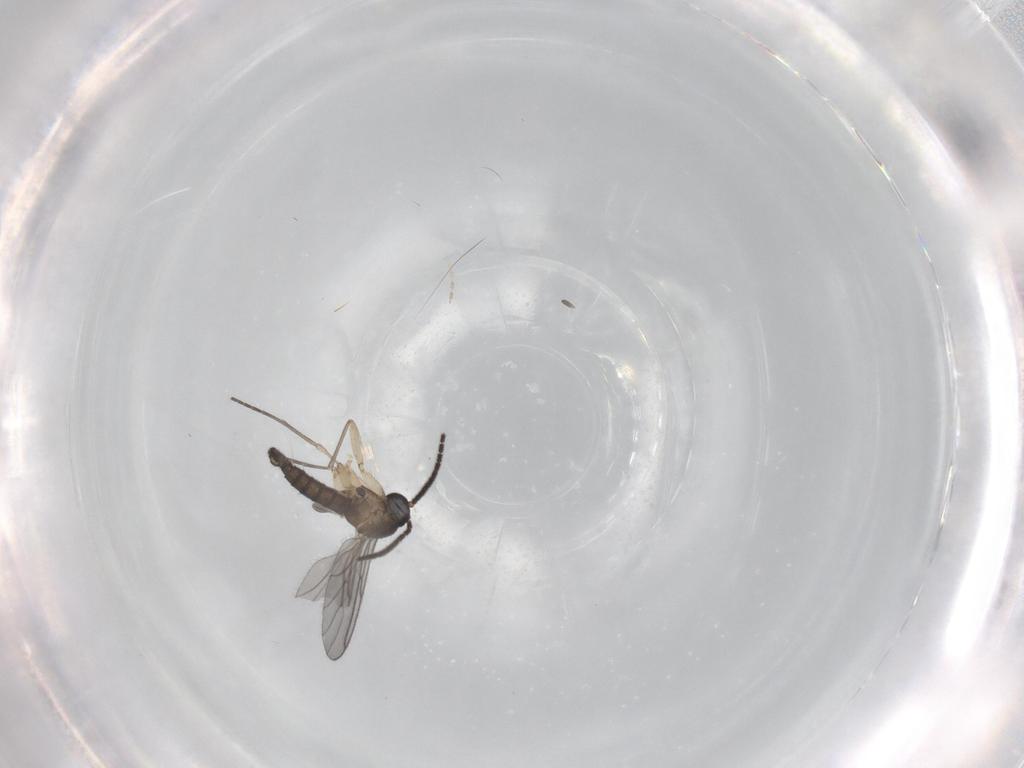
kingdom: Animalia
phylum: Arthropoda
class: Insecta
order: Diptera
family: Sciaridae
